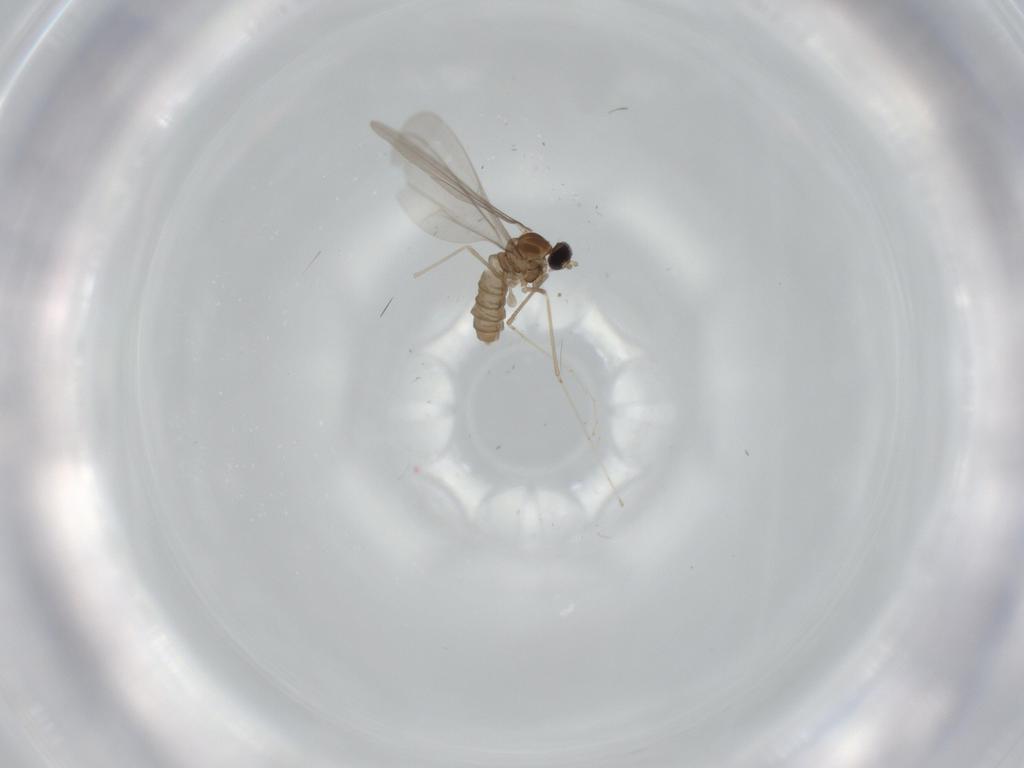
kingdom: Animalia
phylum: Arthropoda
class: Insecta
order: Diptera
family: Cecidomyiidae
